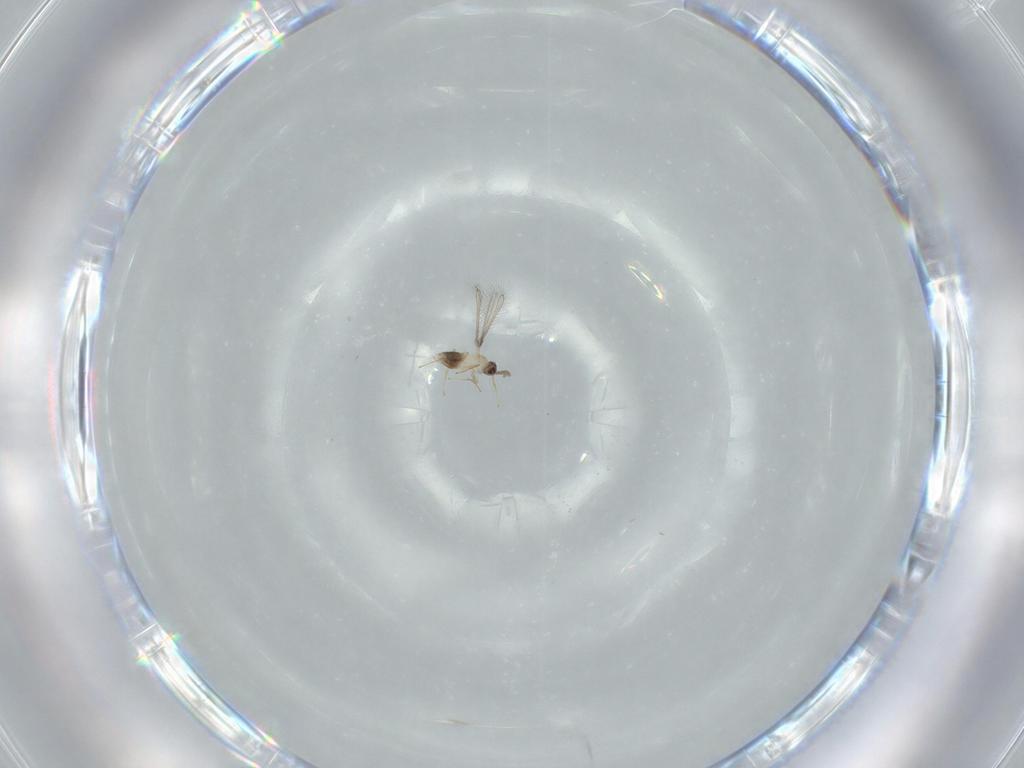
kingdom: Animalia
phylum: Arthropoda
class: Insecta
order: Hymenoptera
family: Mymaridae
